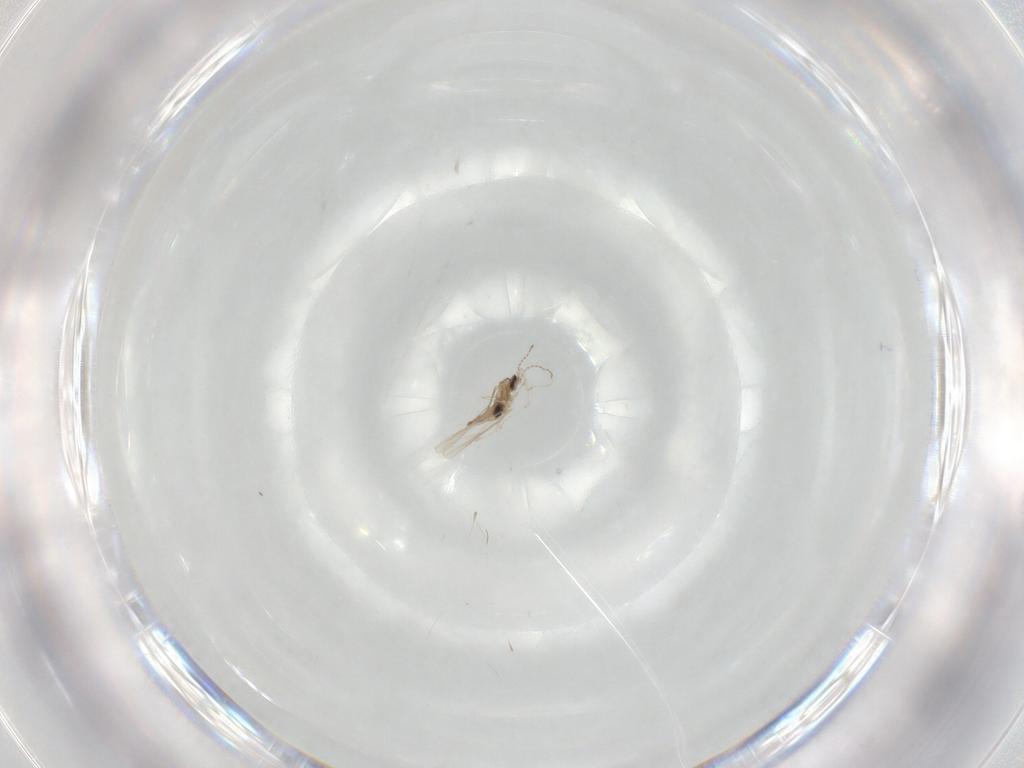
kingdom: Animalia
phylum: Arthropoda
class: Insecta
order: Diptera
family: Cecidomyiidae
